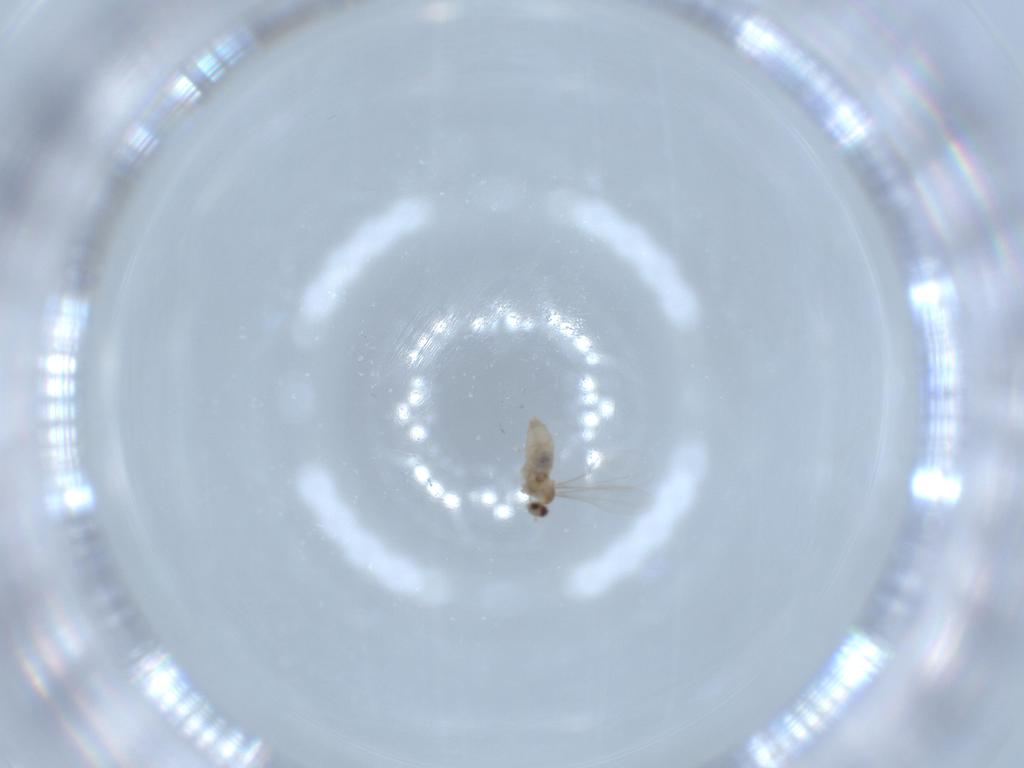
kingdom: Animalia
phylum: Arthropoda
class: Insecta
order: Diptera
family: Cecidomyiidae
